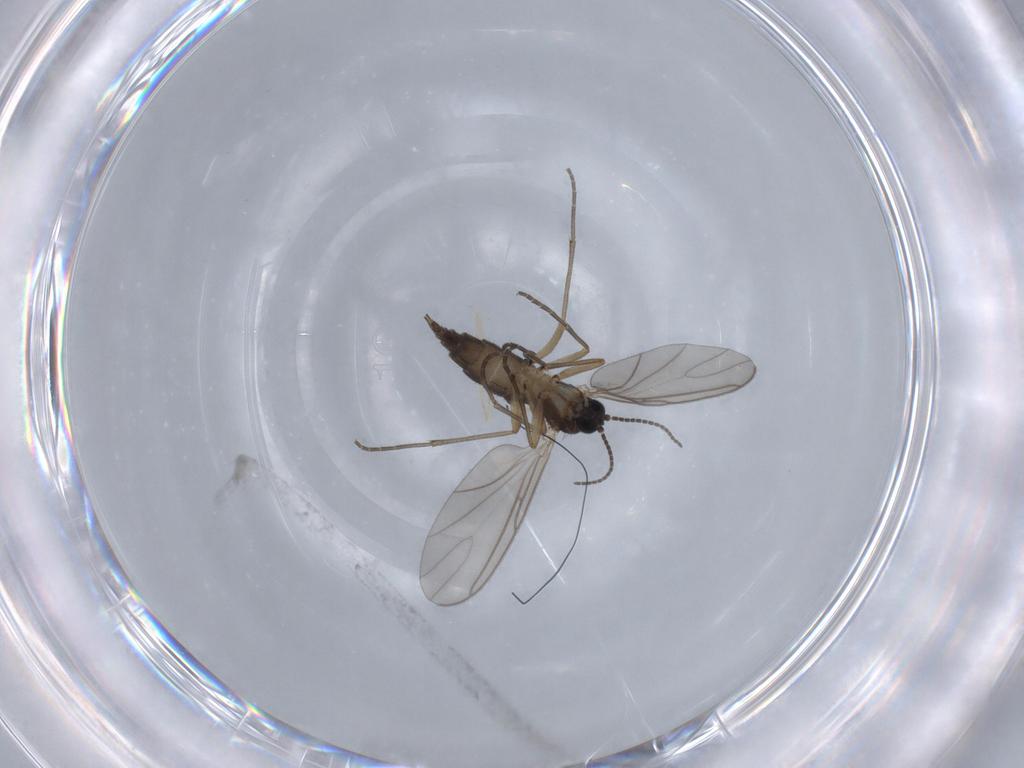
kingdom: Animalia
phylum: Arthropoda
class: Insecta
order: Diptera
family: Sciaridae
